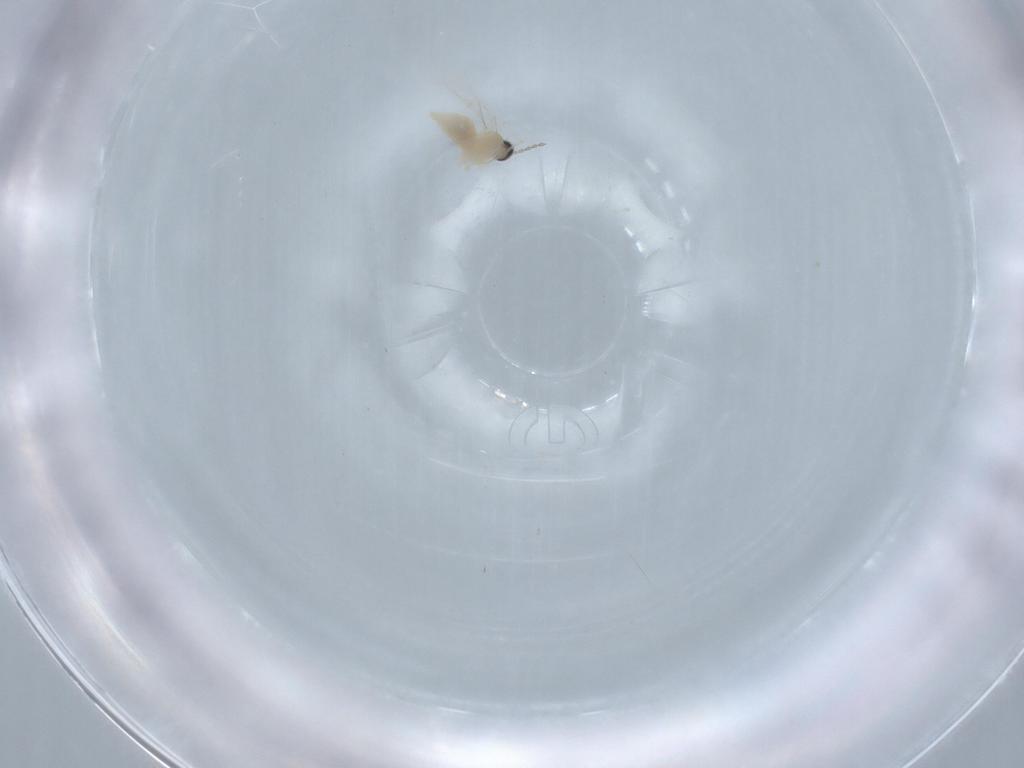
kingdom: Animalia
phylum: Arthropoda
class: Insecta
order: Diptera
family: Cecidomyiidae
